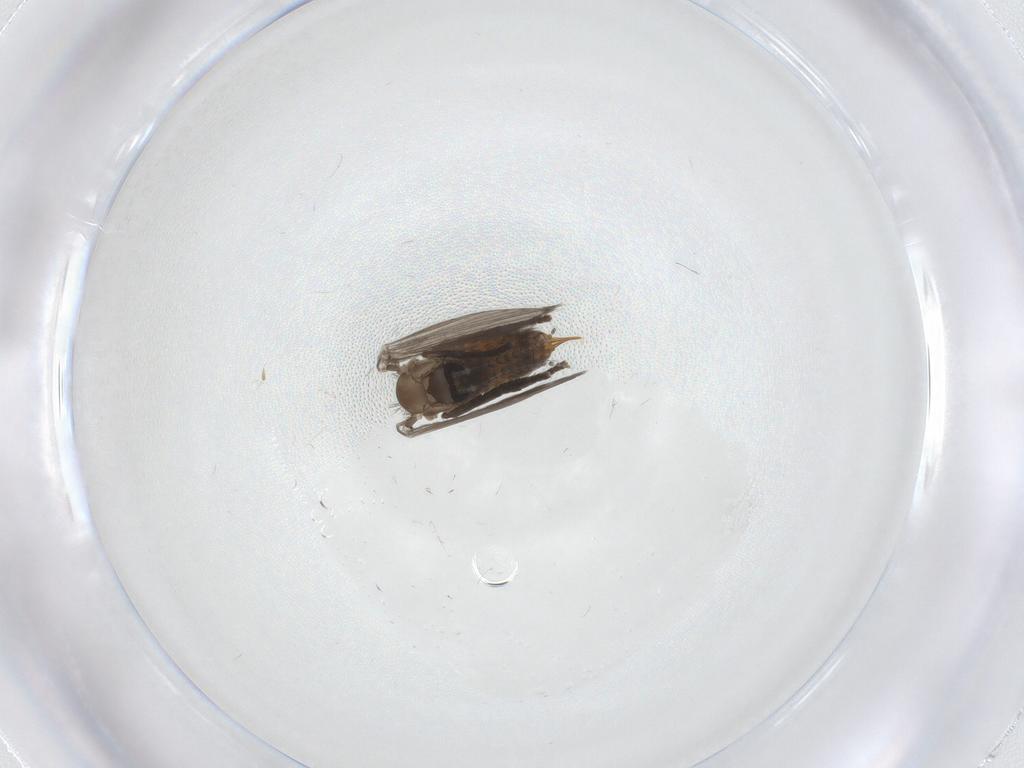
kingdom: Animalia
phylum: Arthropoda
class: Insecta
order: Diptera
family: Psychodidae
